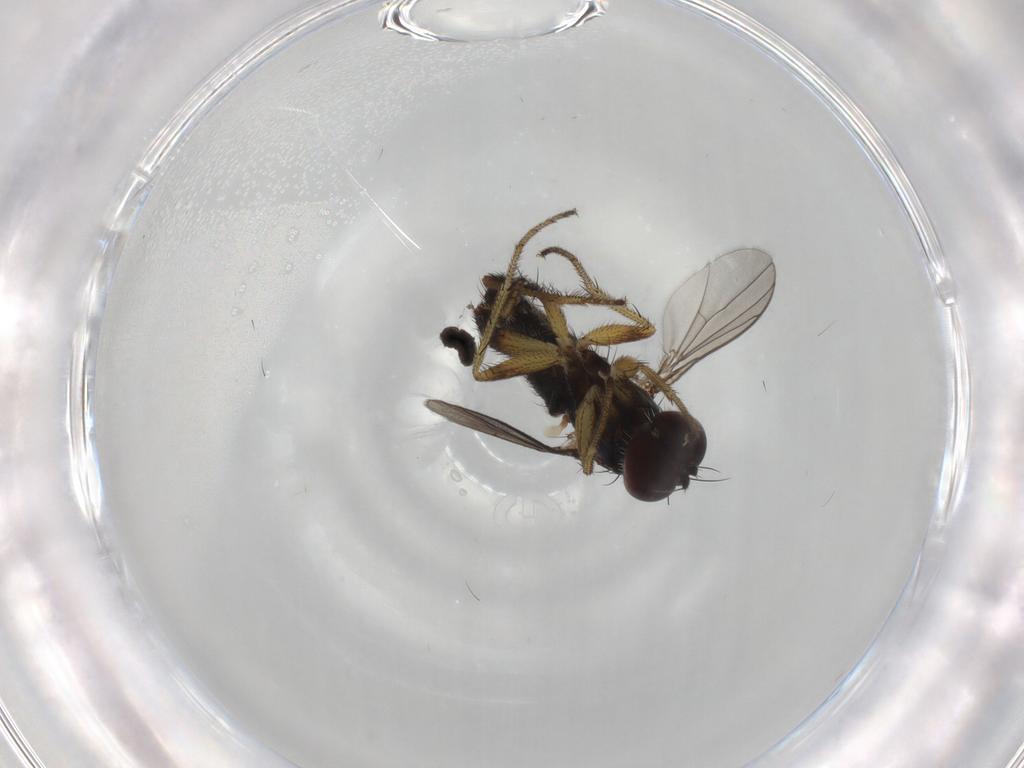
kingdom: Animalia
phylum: Arthropoda
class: Insecta
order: Diptera
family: Dolichopodidae
